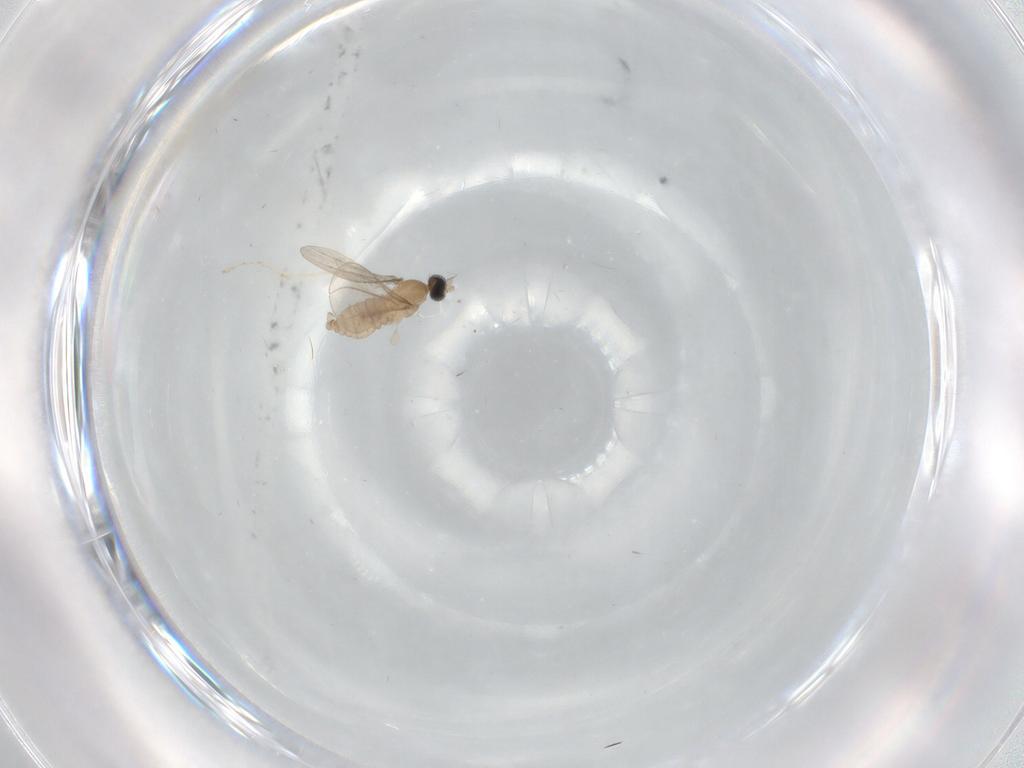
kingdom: Animalia
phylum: Arthropoda
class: Insecta
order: Diptera
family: Cecidomyiidae
